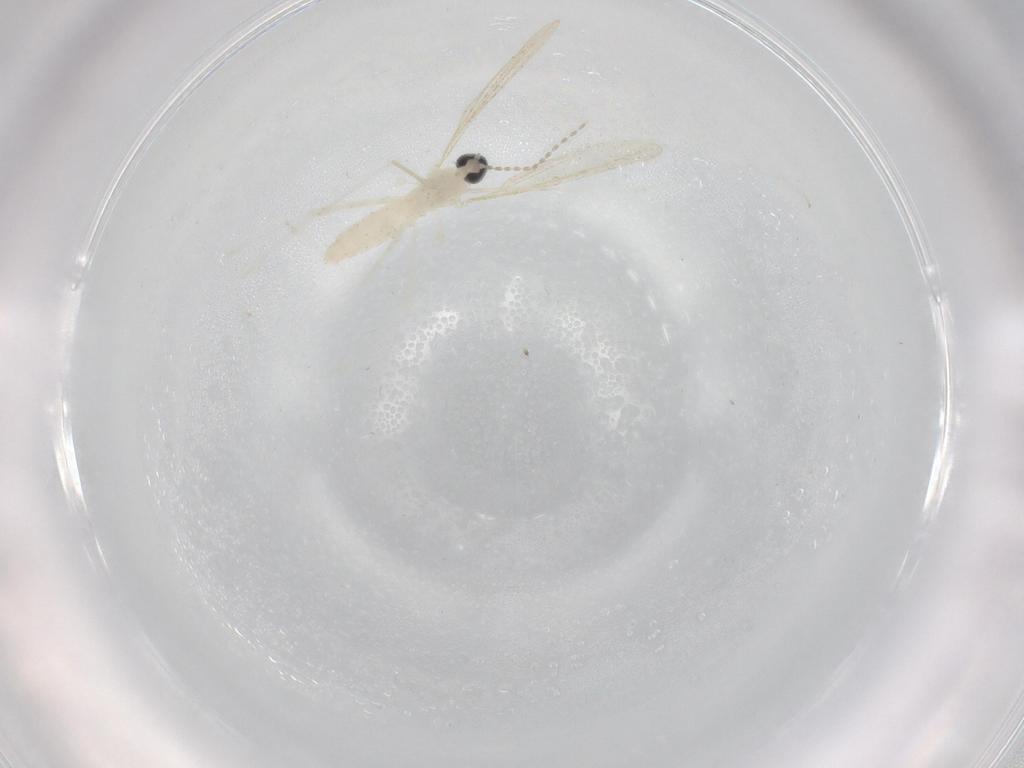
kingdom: Animalia
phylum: Arthropoda
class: Insecta
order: Diptera
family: Cecidomyiidae
